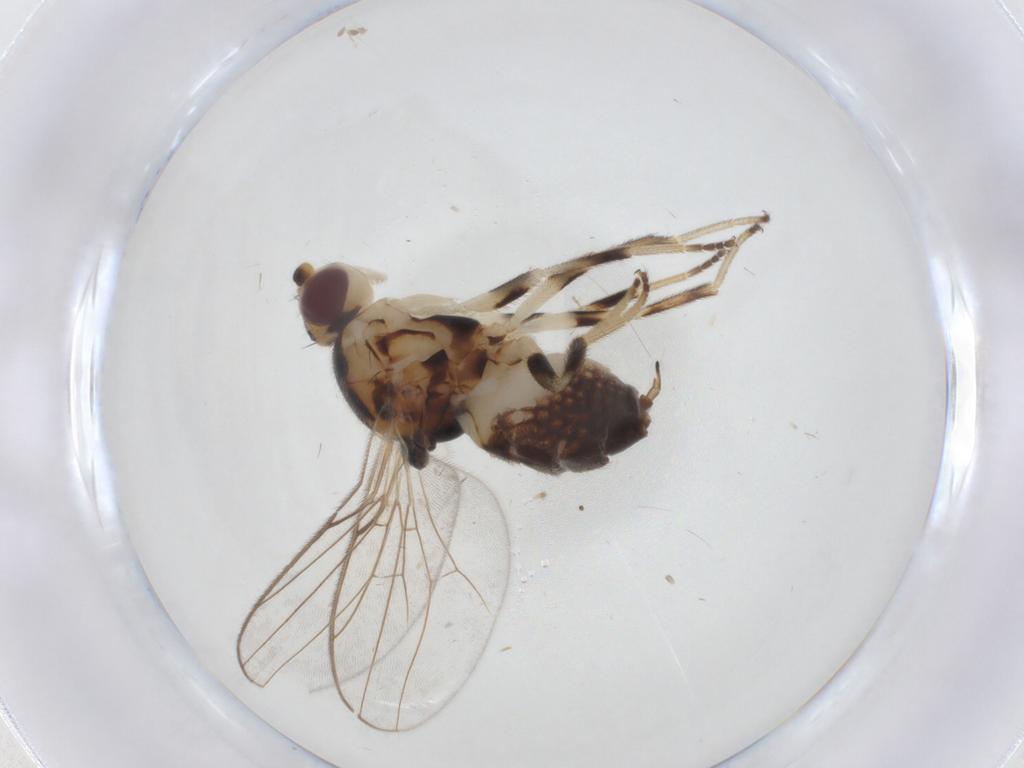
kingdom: Animalia
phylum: Arthropoda
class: Insecta
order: Diptera
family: Chloropidae
